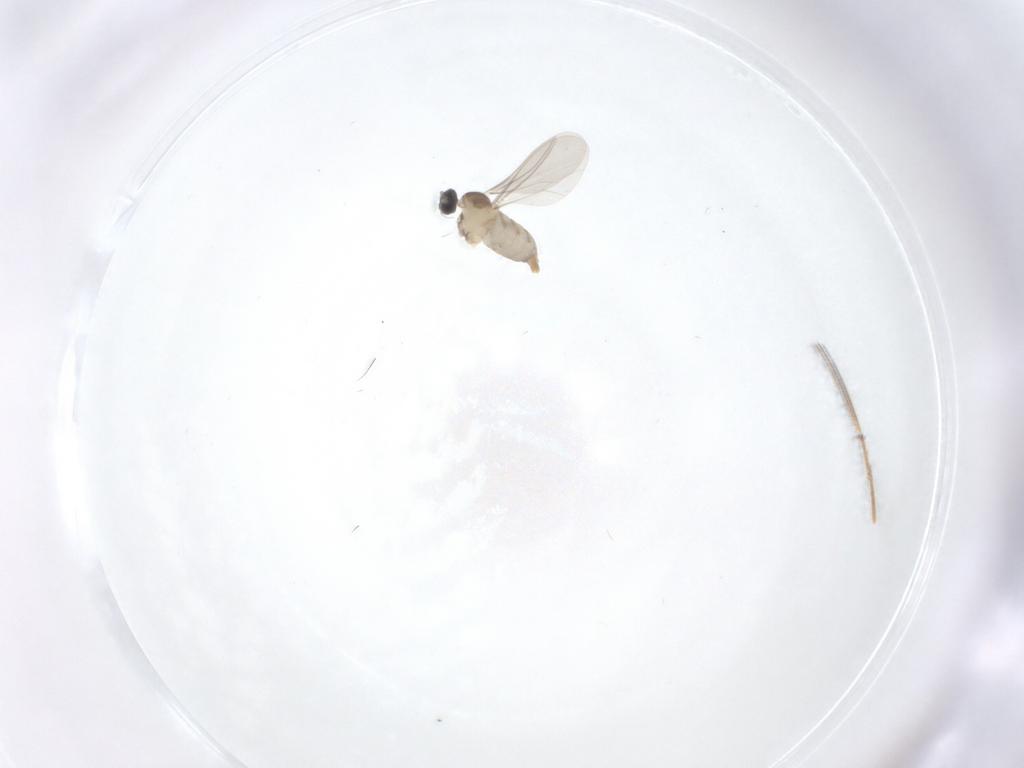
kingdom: Animalia
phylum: Arthropoda
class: Insecta
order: Diptera
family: Cecidomyiidae
